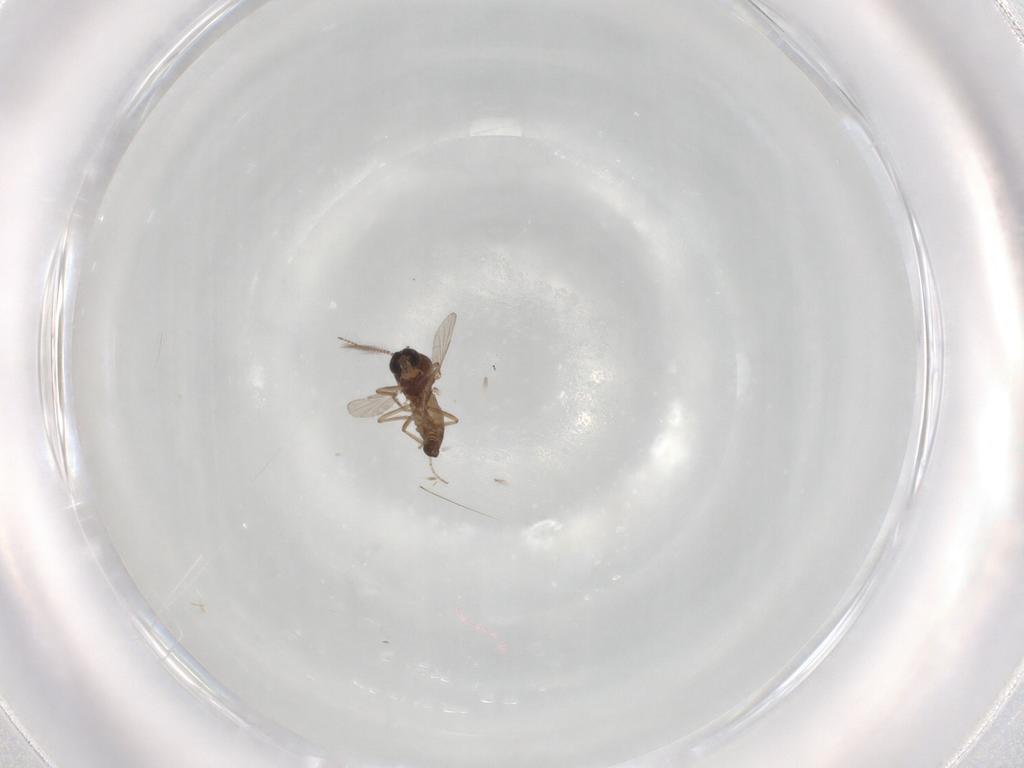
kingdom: Animalia
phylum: Arthropoda
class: Insecta
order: Diptera
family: Ceratopogonidae
